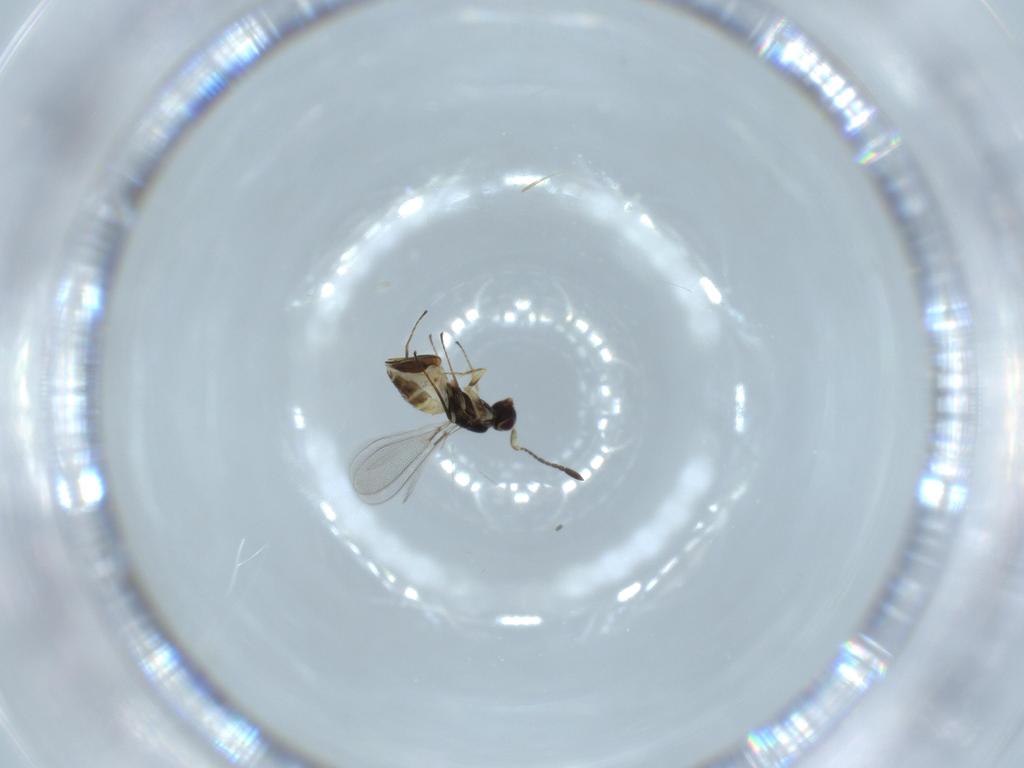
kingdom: Animalia
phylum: Arthropoda
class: Insecta
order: Hymenoptera
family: Mymaridae
